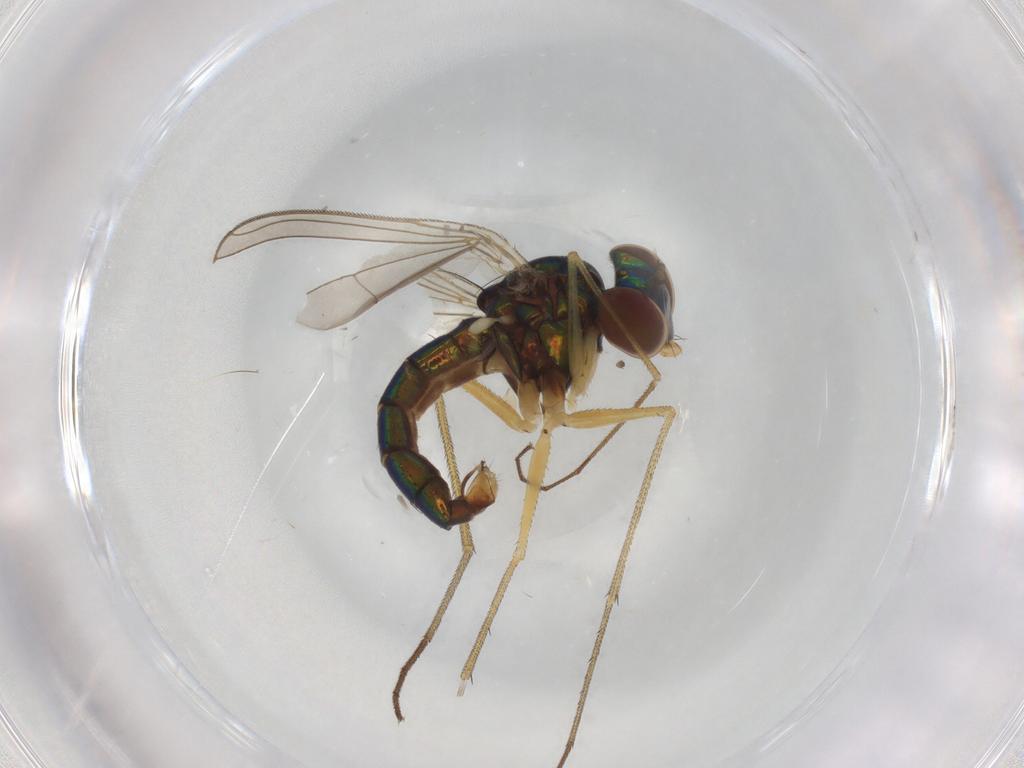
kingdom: Animalia
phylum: Arthropoda
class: Insecta
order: Diptera
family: Dolichopodidae
